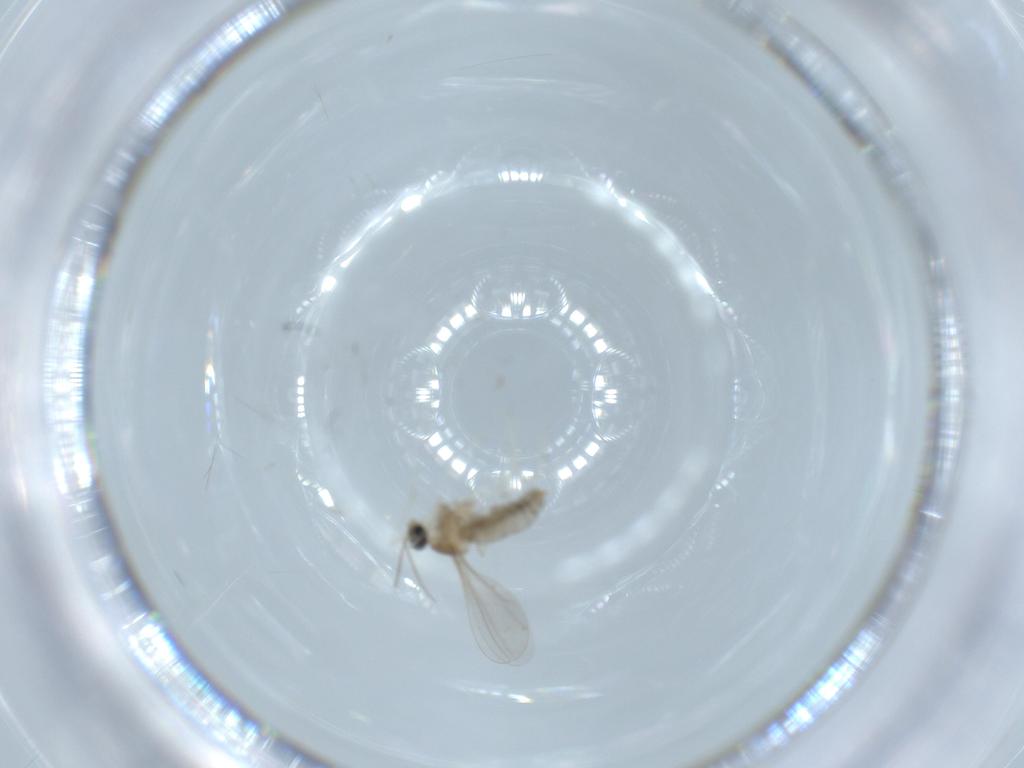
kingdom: Animalia
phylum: Arthropoda
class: Insecta
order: Diptera
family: Cecidomyiidae
